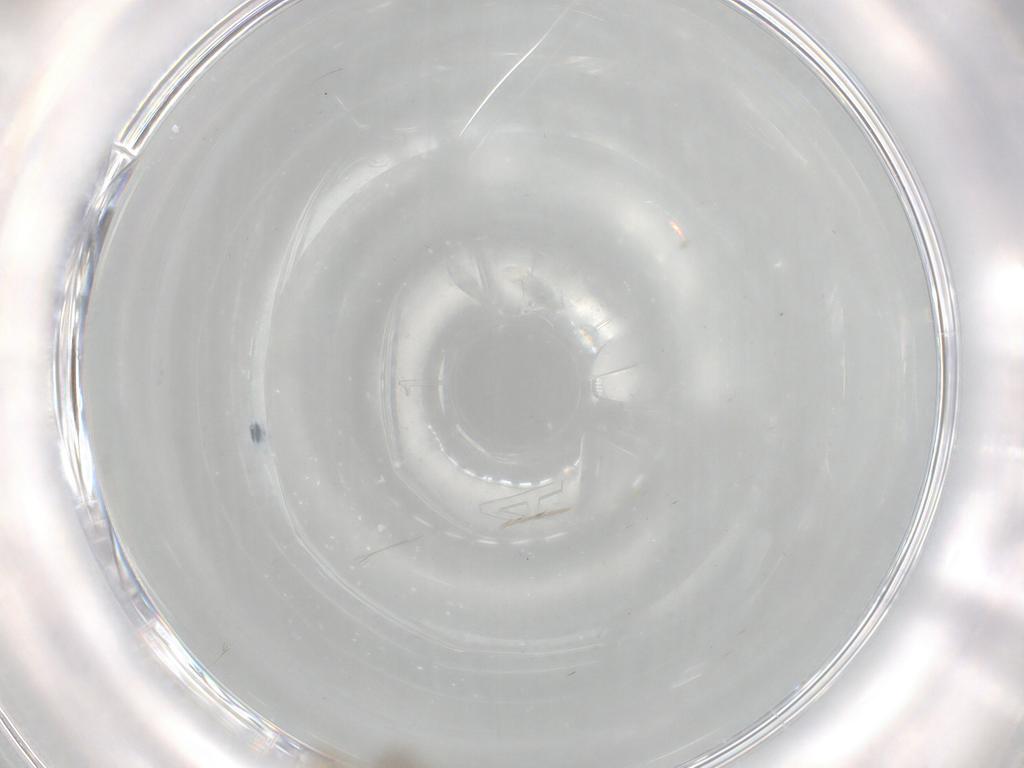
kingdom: Animalia
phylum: Arthropoda
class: Insecta
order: Diptera
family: Cecidomyiidae
